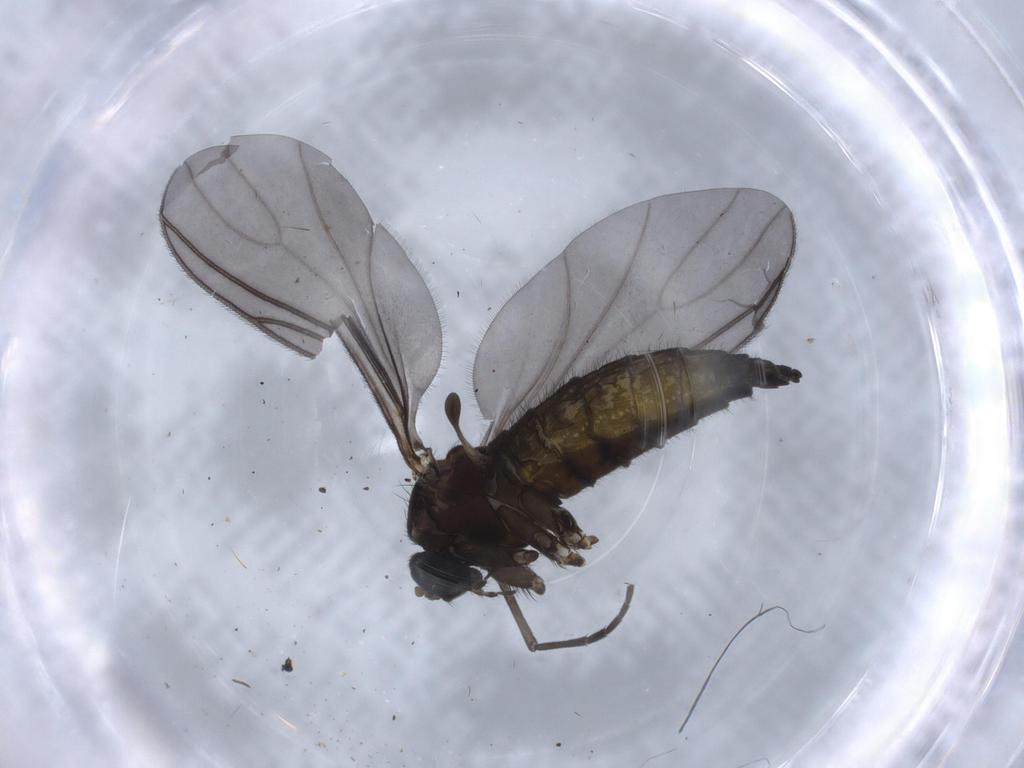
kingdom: Animalia
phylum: Arthropoda
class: Insecta
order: Diptera
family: Sciaridae
